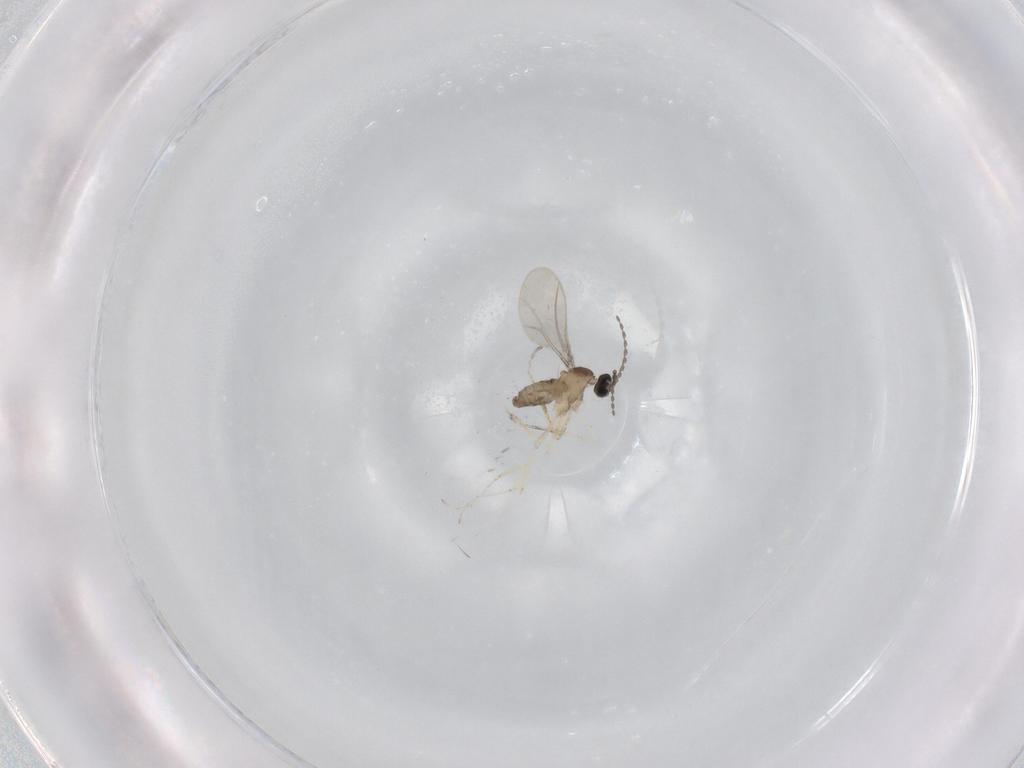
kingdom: Animalia
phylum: Arthropoda
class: Insecta
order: Diptera
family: Cecidomyiidae
